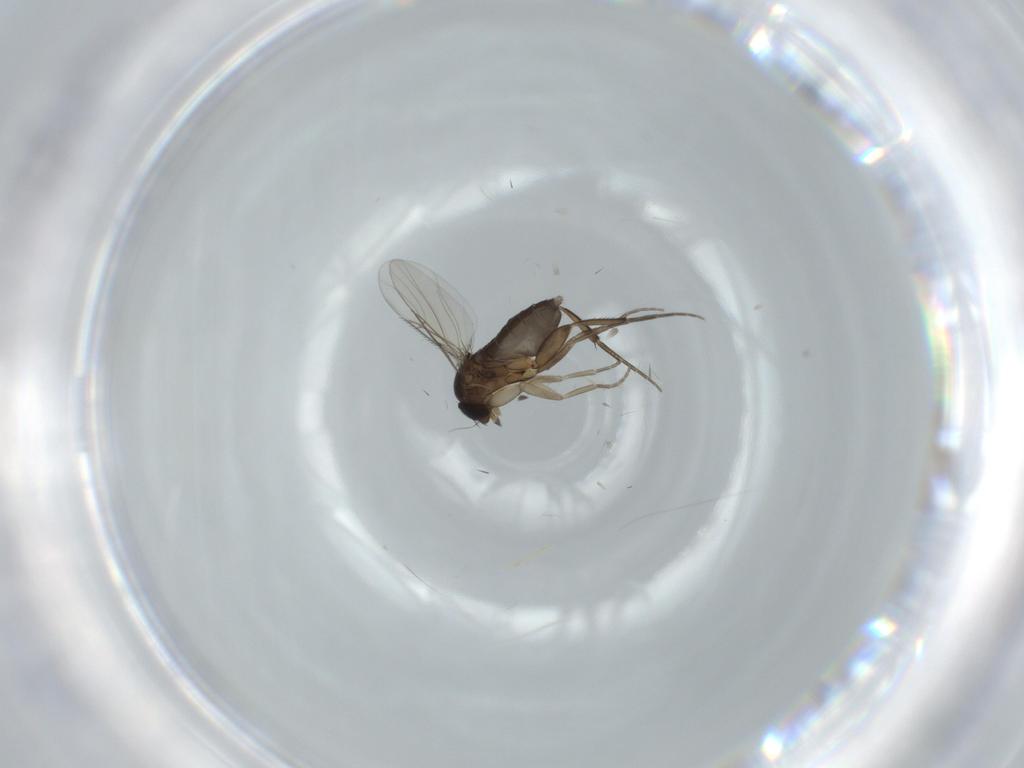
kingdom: Animalia
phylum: Arthropoda
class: Insecta
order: Diptera
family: Phoridae
